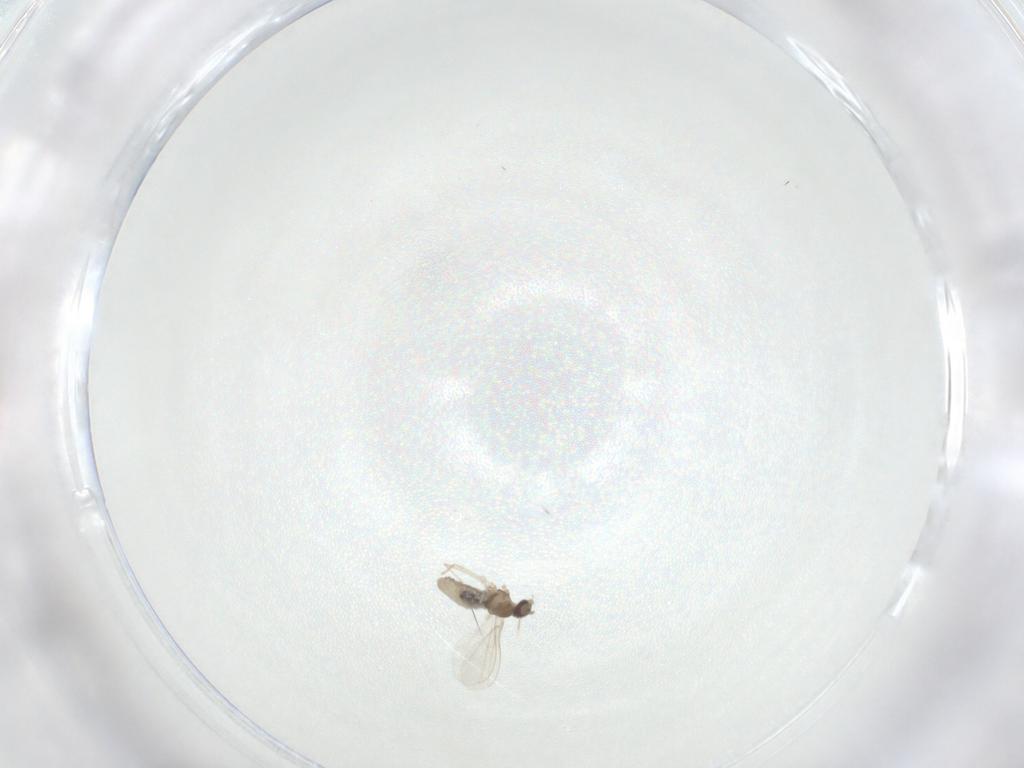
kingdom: Animalia
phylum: Arthropoda
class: Insecta
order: Diptera
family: Cecidomyiidae
